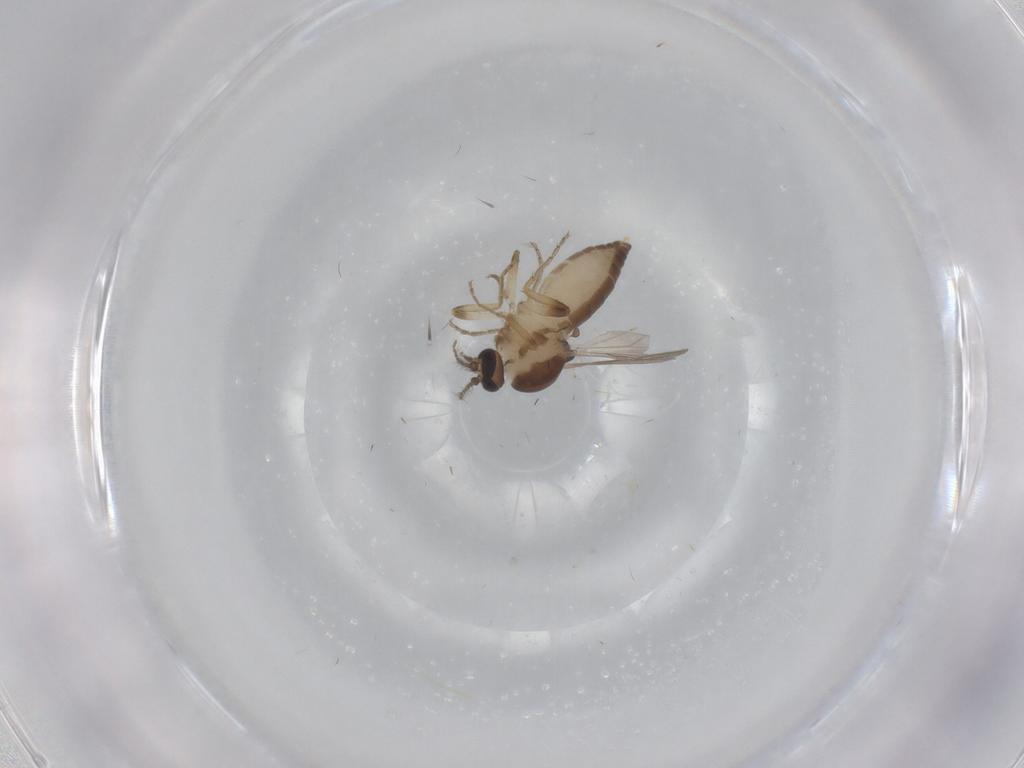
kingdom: Animalia
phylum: Arthropoda
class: Insecta
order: Diptera
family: Ceratopogonidae
